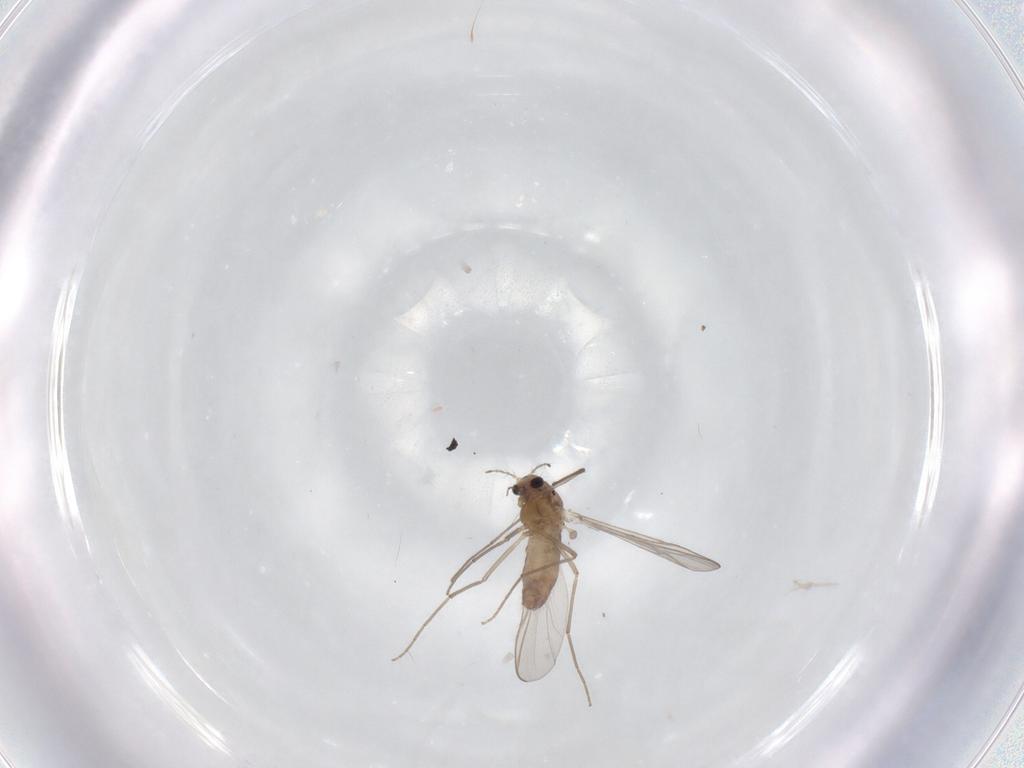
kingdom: Animalia
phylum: Arthropoda
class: Insecta
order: Diptera
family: Chironomidae
